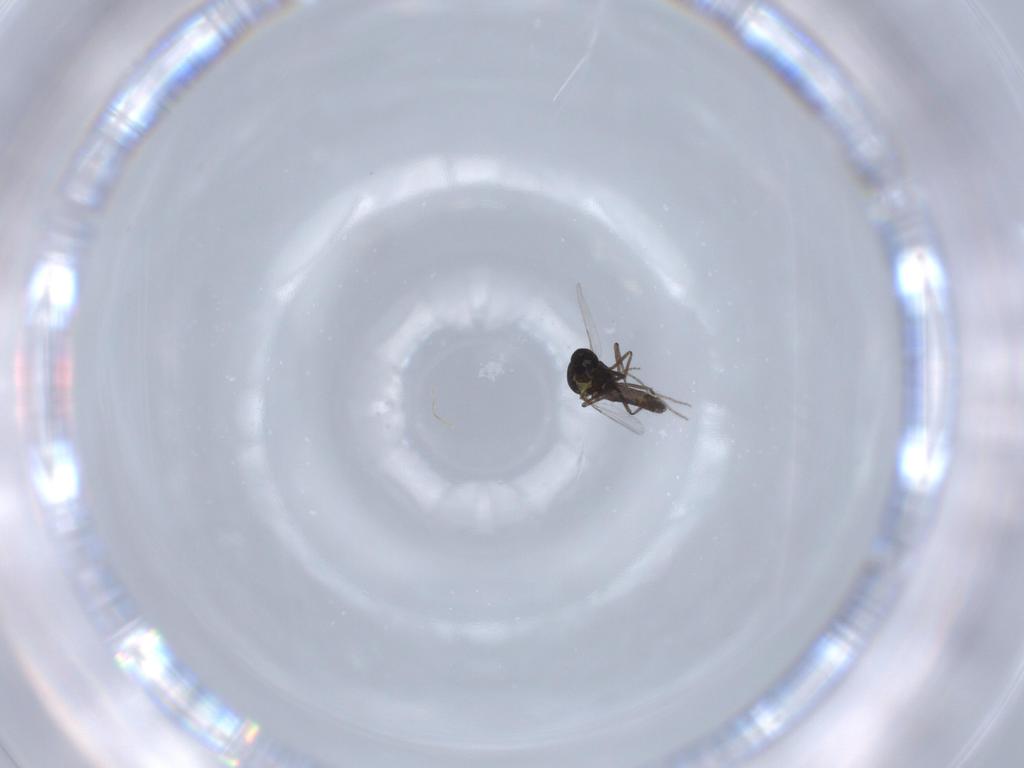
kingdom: Animalia
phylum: Arthropoda
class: Insecta
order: Diptera
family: Ceratopogonidae
